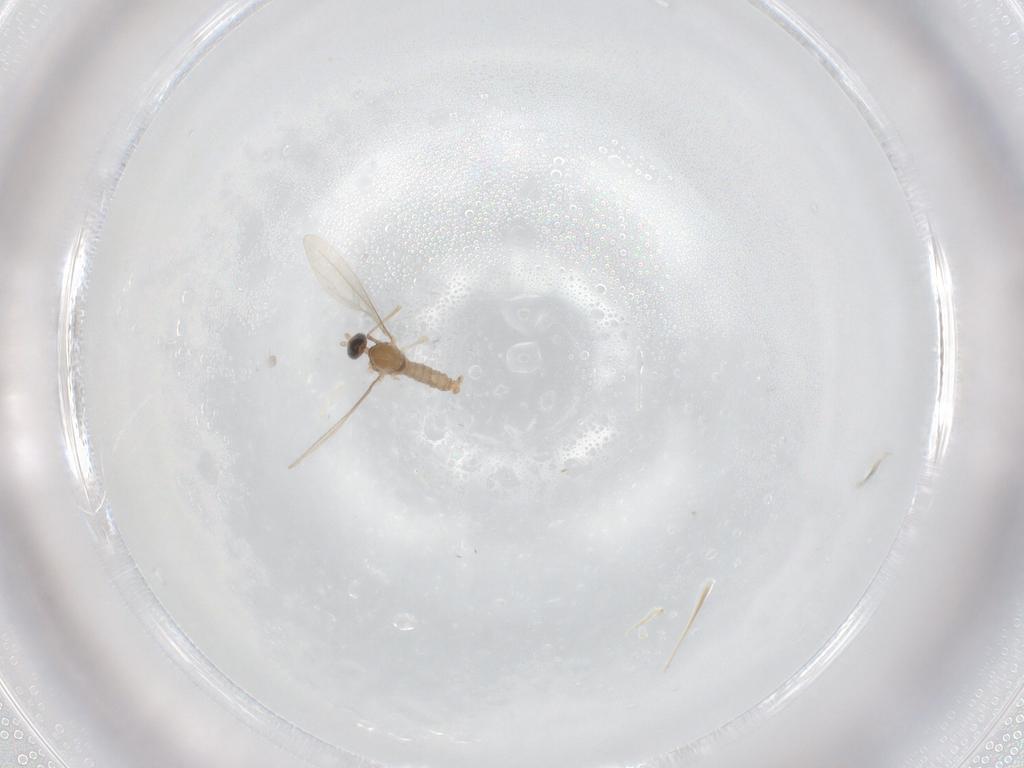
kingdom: Animalia
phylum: Arthropoda
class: Insecta
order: Diptera
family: Cecidomyiidae
